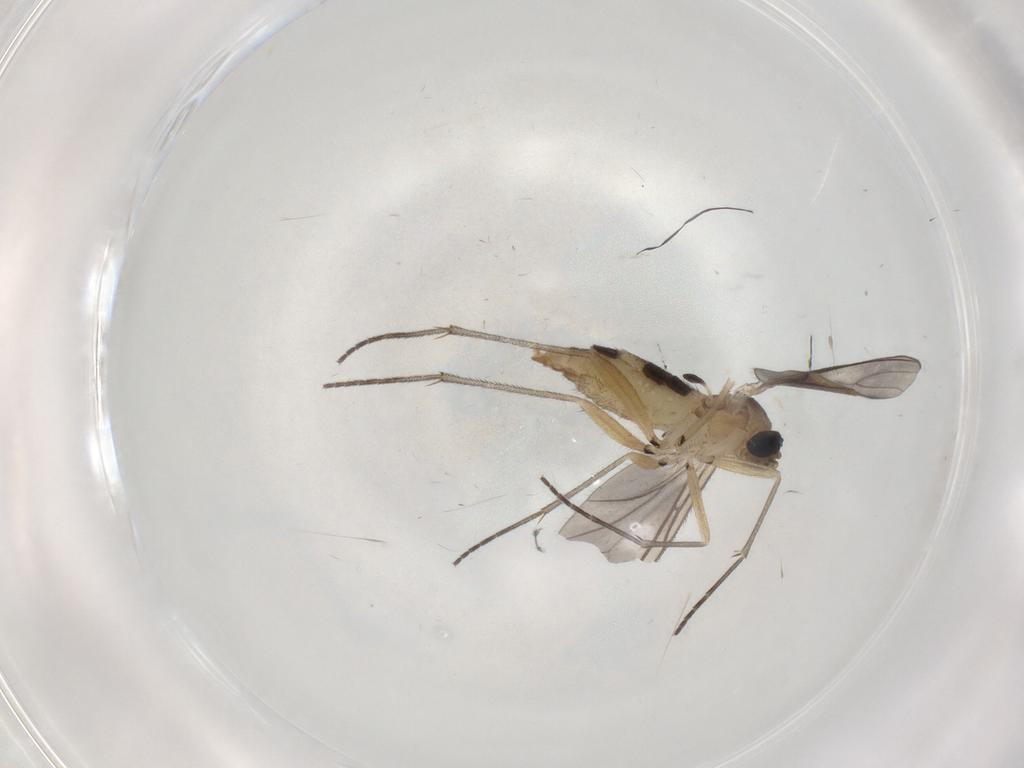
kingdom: Animalia
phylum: Arthropoda
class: Insecta
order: Diptera
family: Sciaridae
